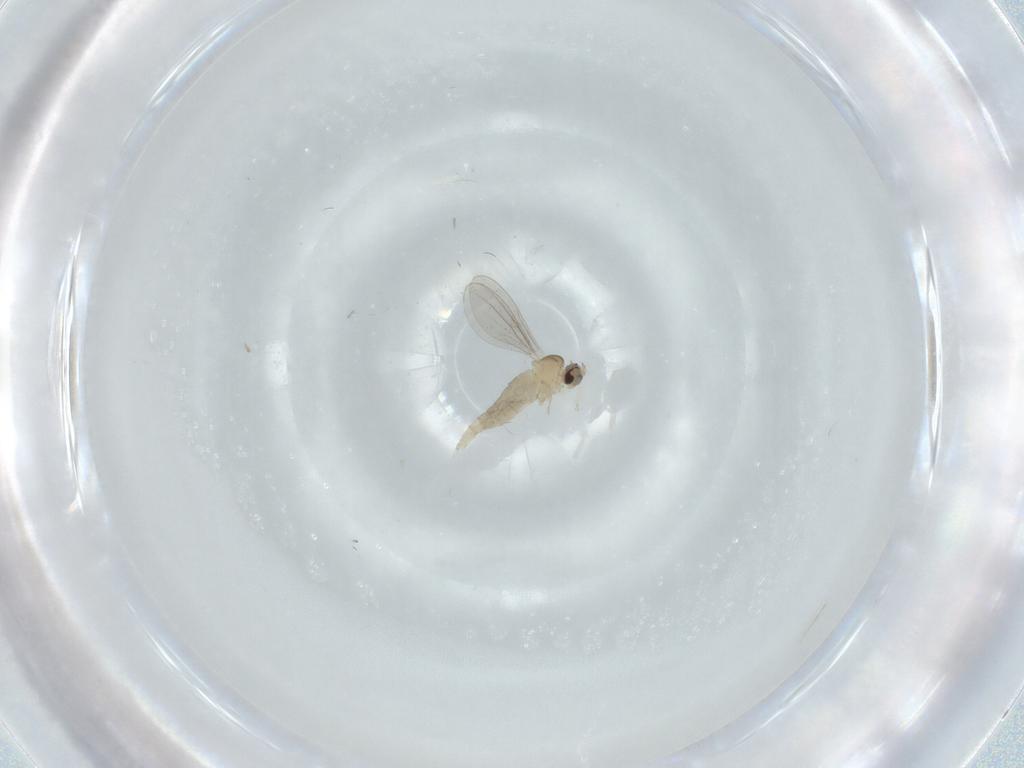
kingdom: Animalia
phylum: Arthropoda
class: Insecta
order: Diptera
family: Cecidomyiidae
